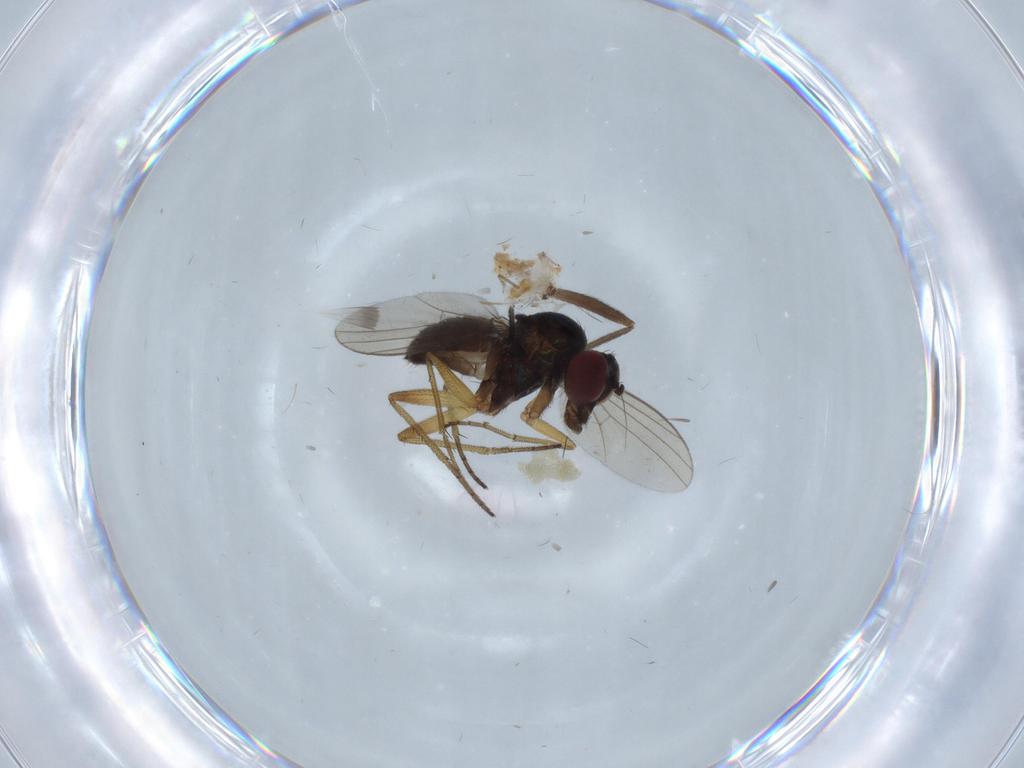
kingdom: Animalia
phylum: Arthropoda
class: Insecta
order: Diptera
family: Dolichopodidae
